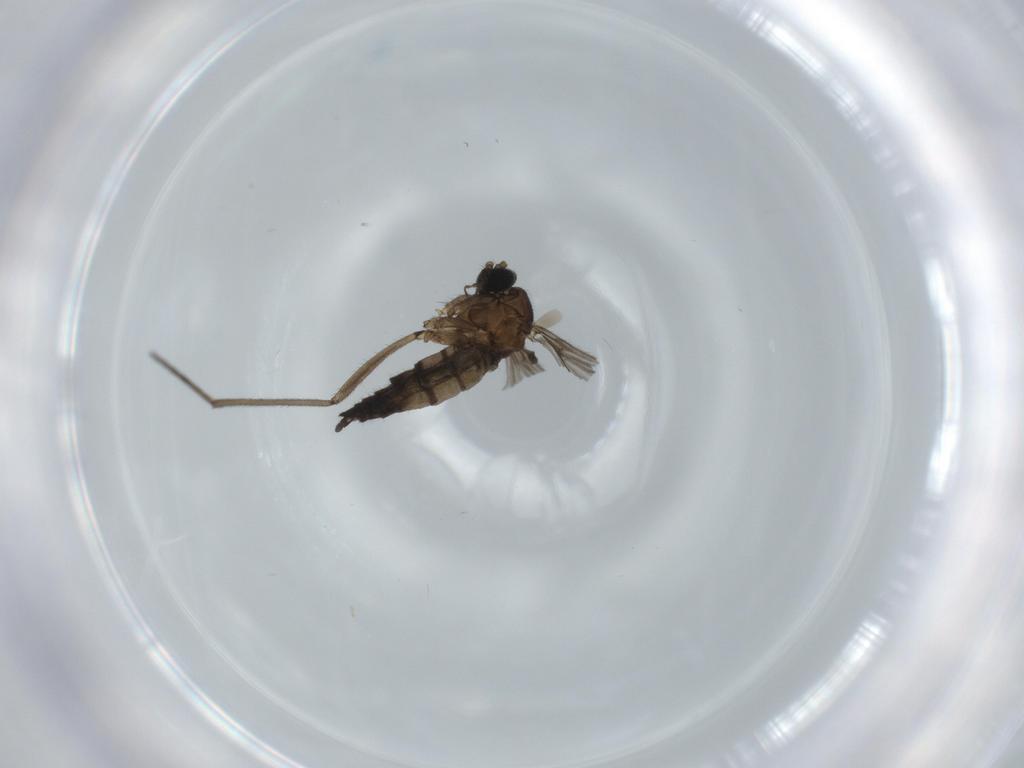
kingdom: Animalia
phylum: Arthropoda
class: Insecta
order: Diptera
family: Sciaridae
